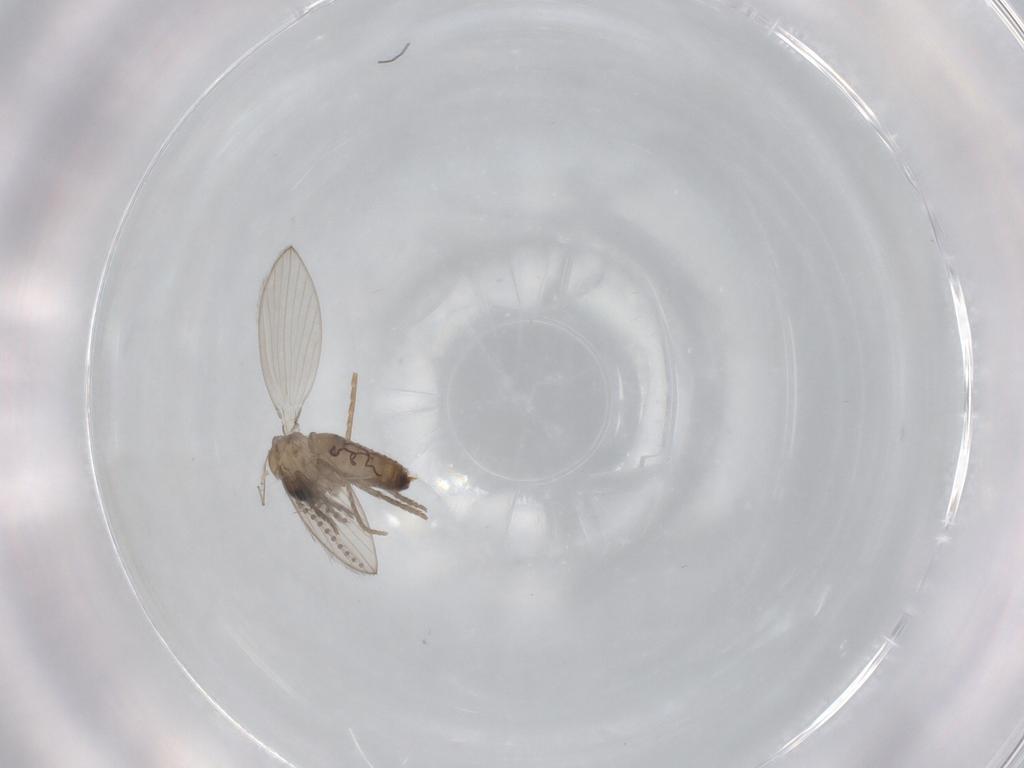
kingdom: Animalia
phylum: Arthropoda
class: Insecta
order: Diptera
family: Psychodidae
